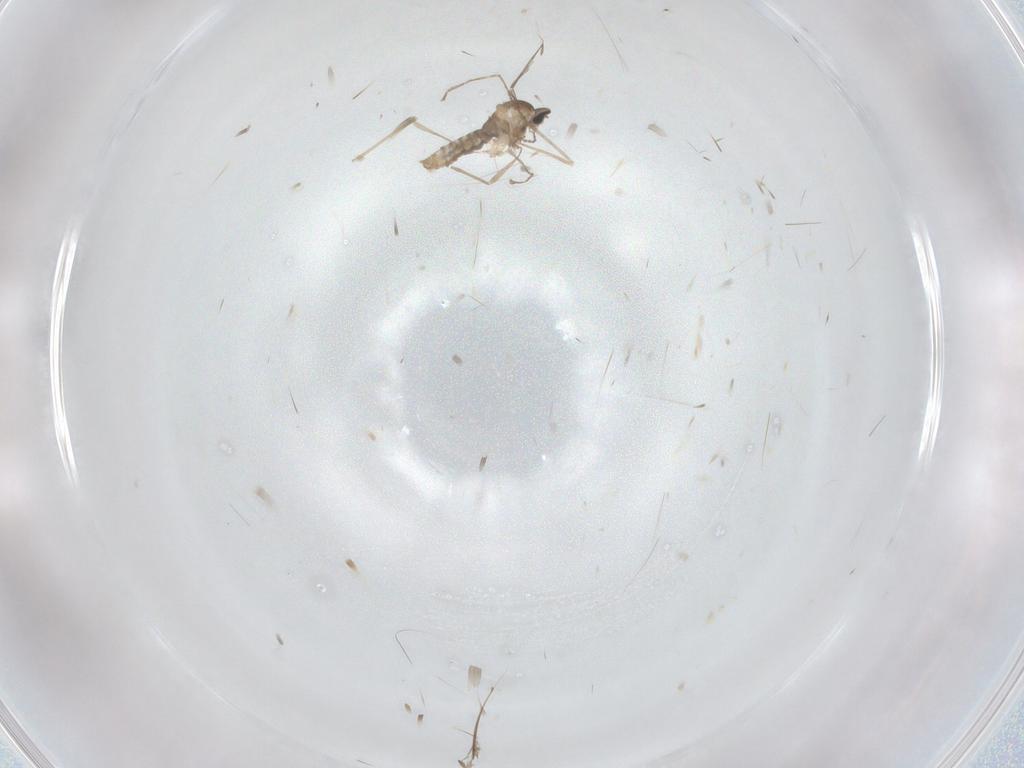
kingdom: Animalia
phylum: Arthropoda
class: Insecta
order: Diptera
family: Cecidomyiidae
